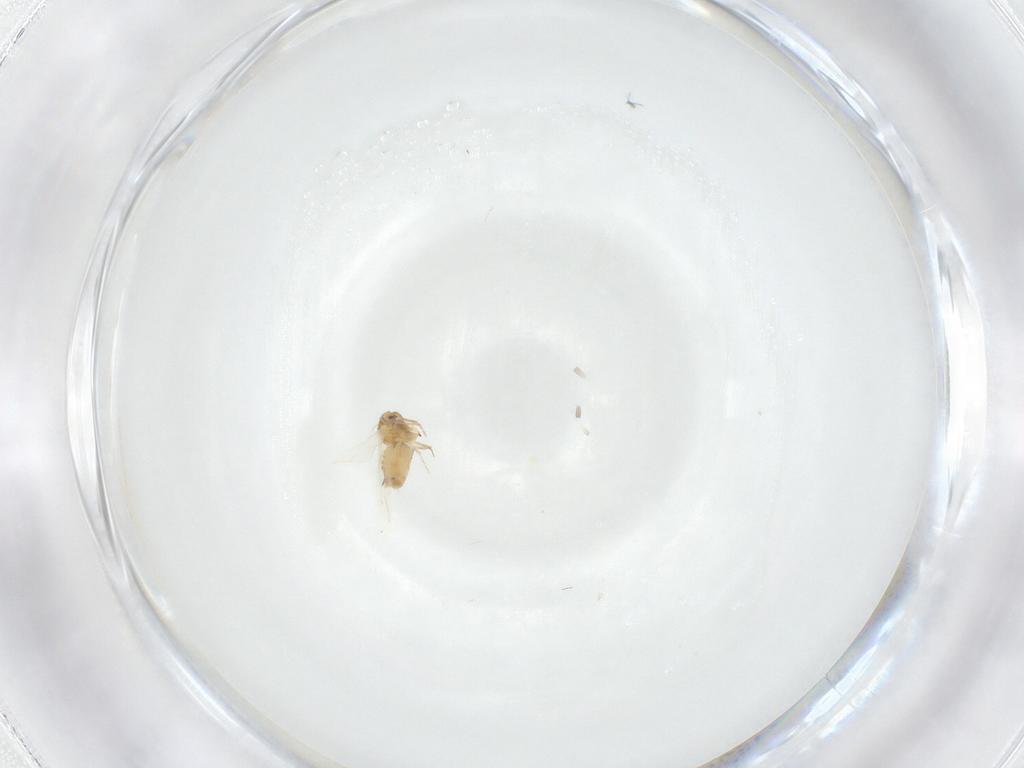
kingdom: Animalia
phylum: Arthropoda
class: Insecta
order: Hemiptera
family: Aleyrodidae
